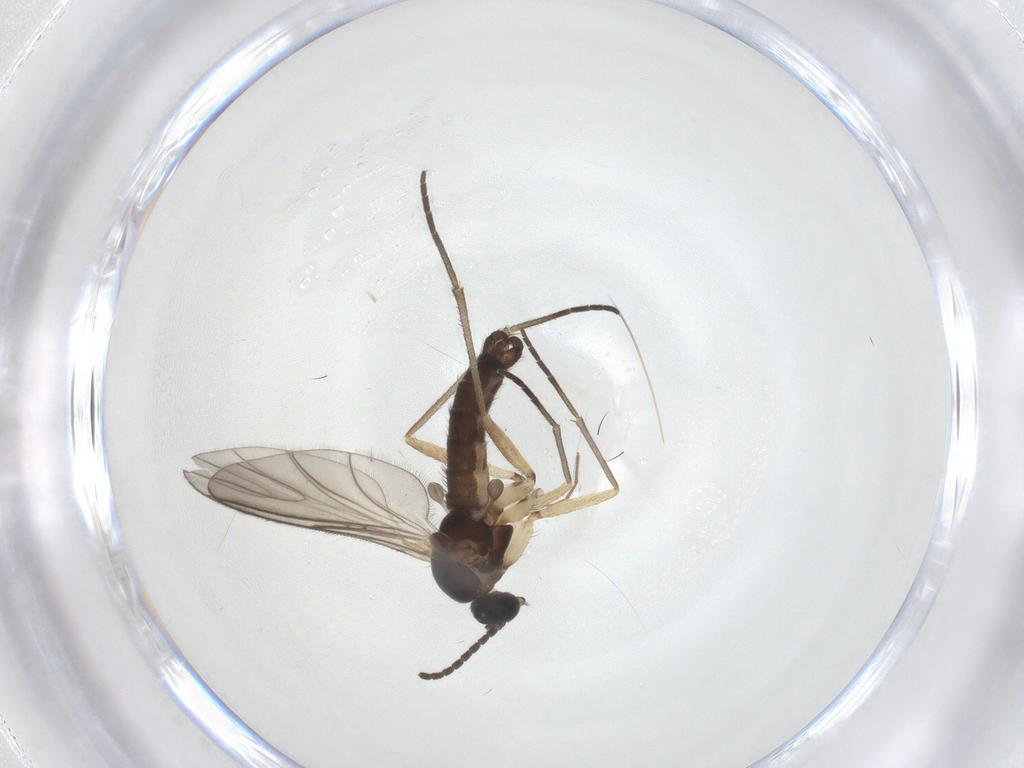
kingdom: Animalia
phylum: Arthropoda
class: Insecta
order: Diptera
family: Sciaridae
